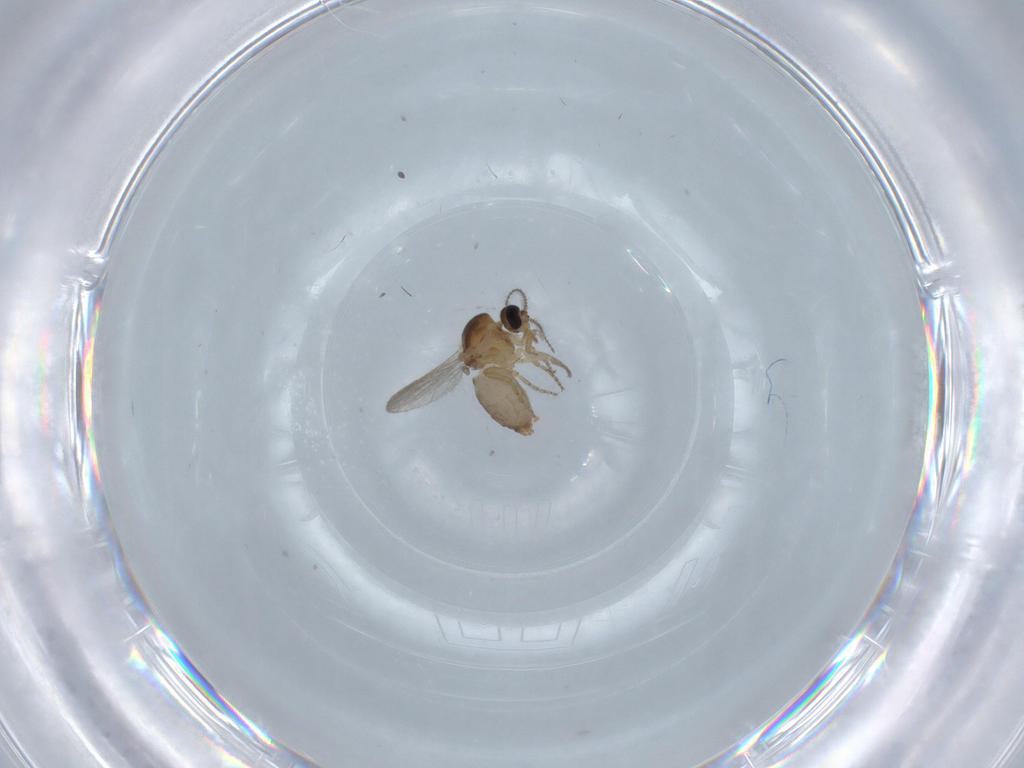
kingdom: Animalia
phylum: Arthropoda
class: Insecta
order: Diptera
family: Ceratopogonidae
